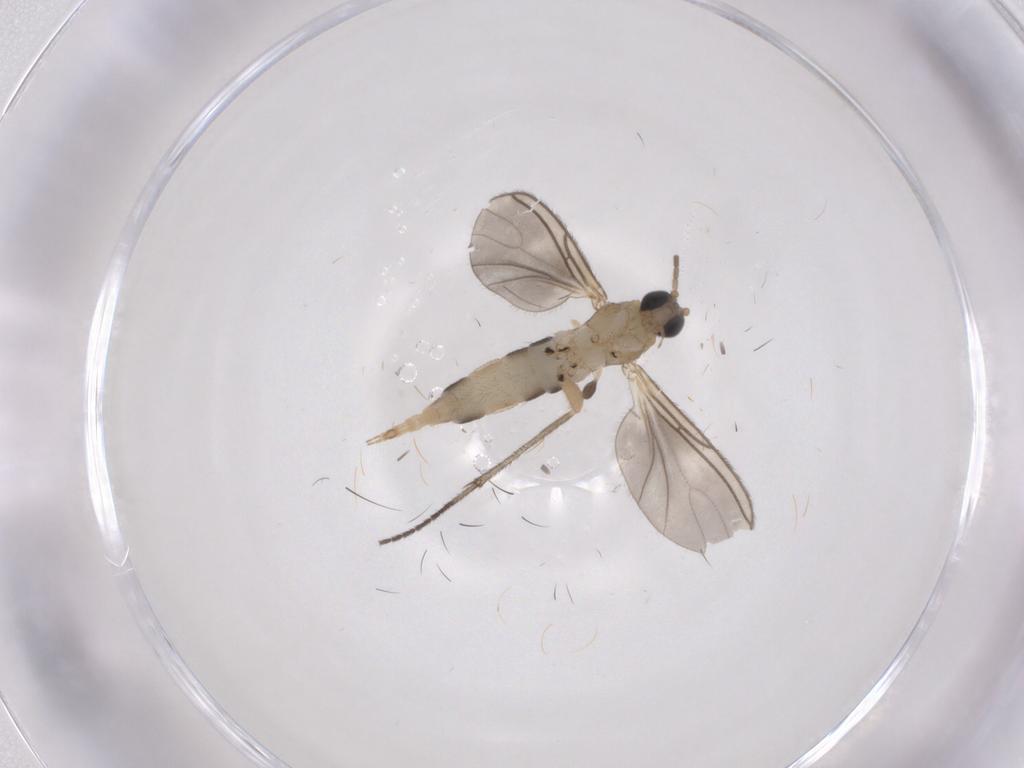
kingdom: Animalia
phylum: Arthropoda
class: Insecta
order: Diptera
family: Sciaridae
